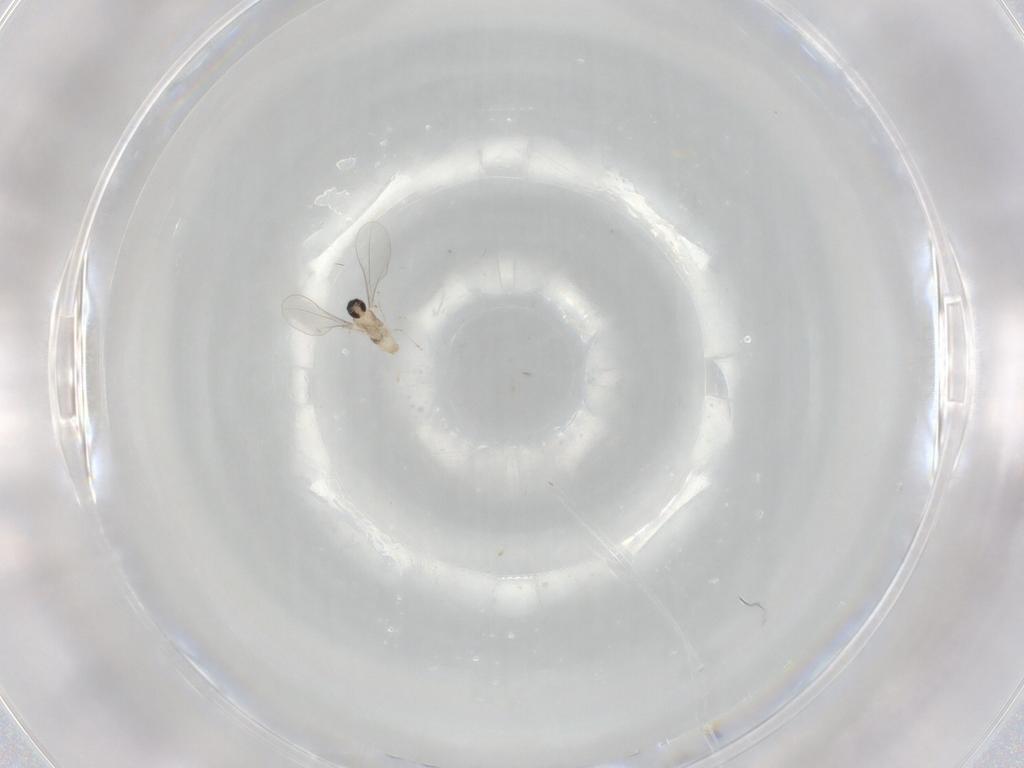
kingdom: Animalia
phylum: Arthropoda
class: Insecta
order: Diptera
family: Cecidomyiidae
